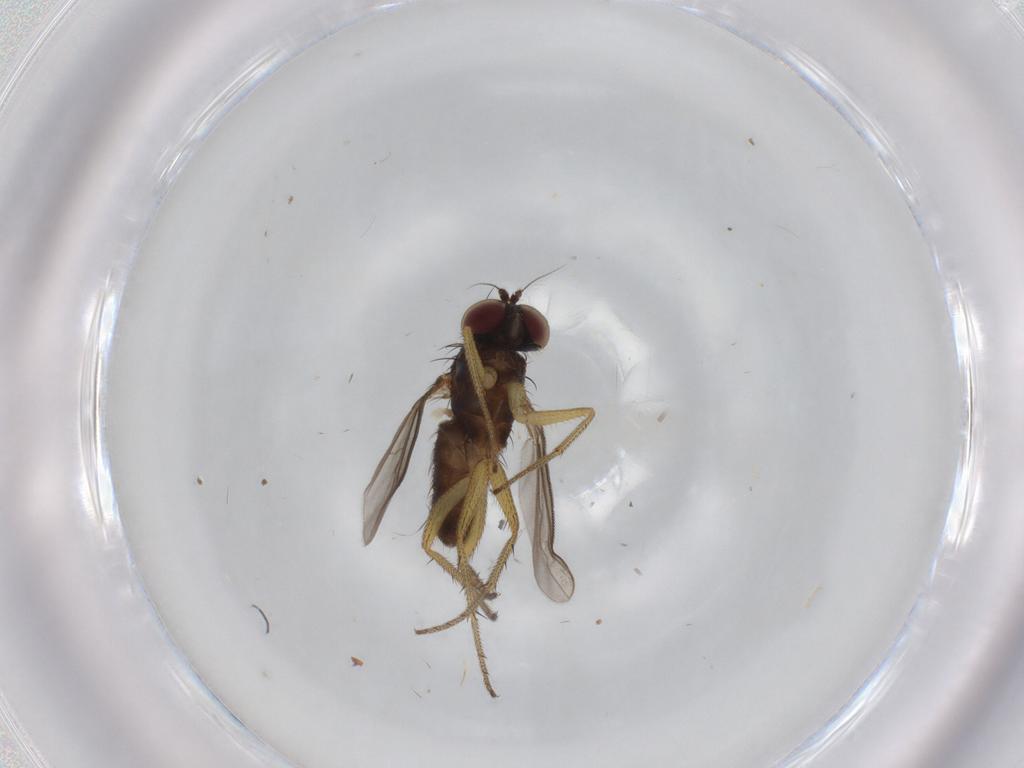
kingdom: Animalia
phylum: Arthropoda
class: Insecta
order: Diptera
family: Dolichopodidae
